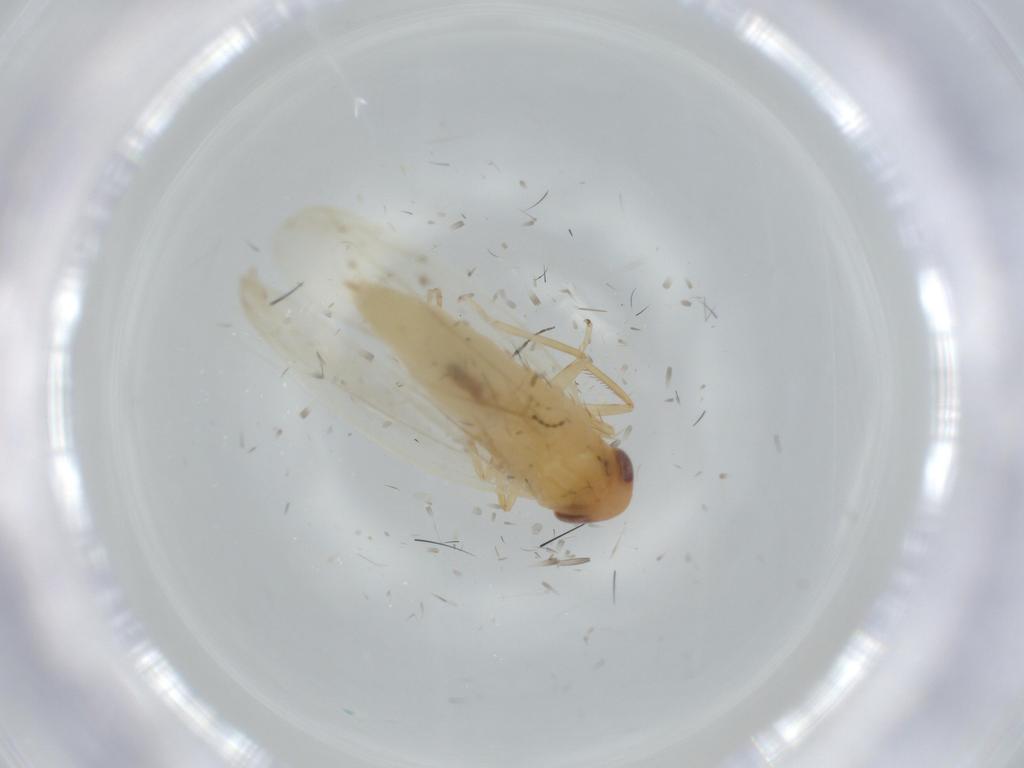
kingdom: Animalia
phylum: Arthropoda
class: Insecta
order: Hemiptera
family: Cicadellidae
